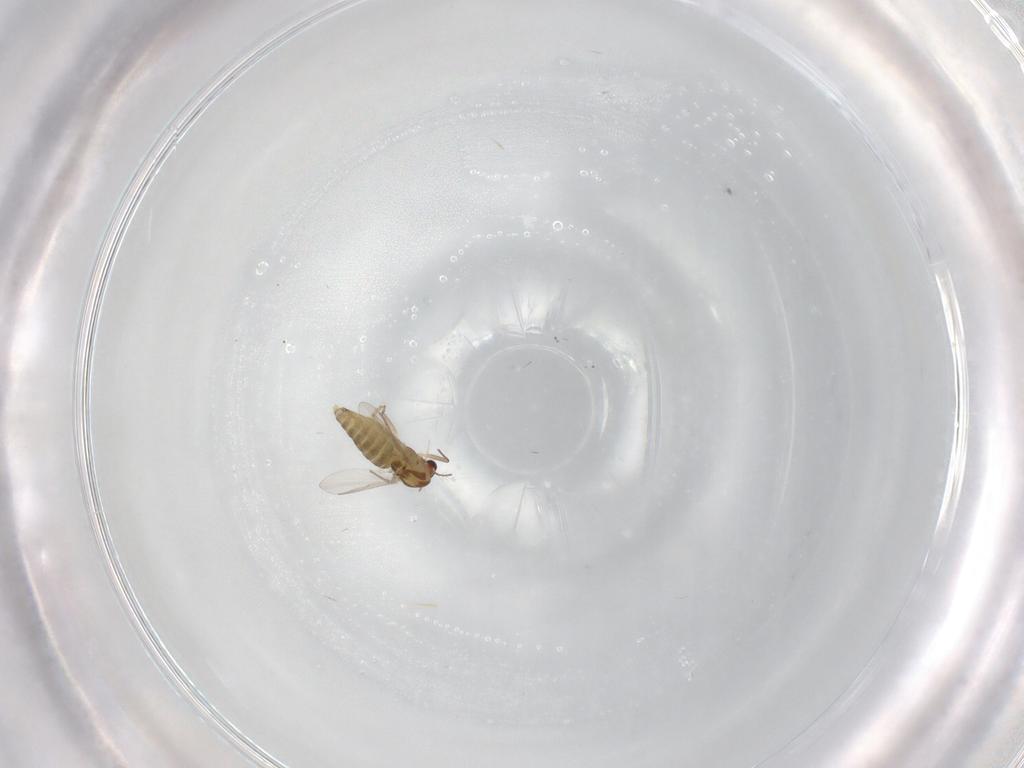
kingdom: Animalia
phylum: Arthropoda
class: Insecta
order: Diptera
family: Chironomidae
